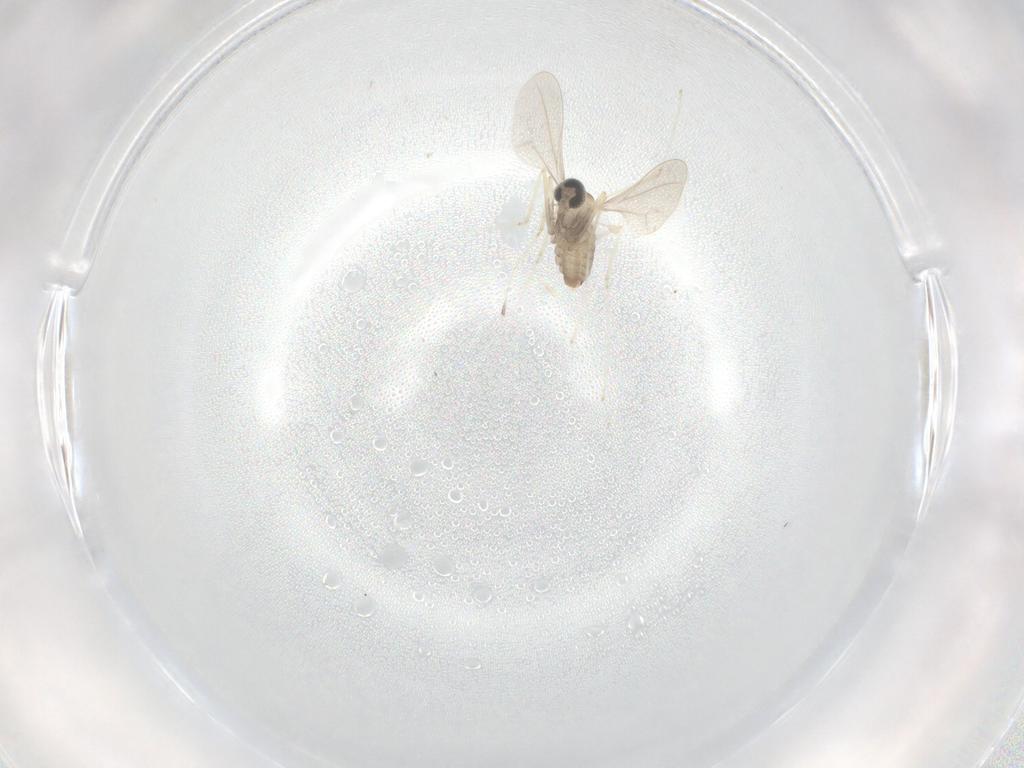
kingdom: Animalia
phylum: Arthropoda
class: Insecta
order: Diptera
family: Cecidomyiidae
